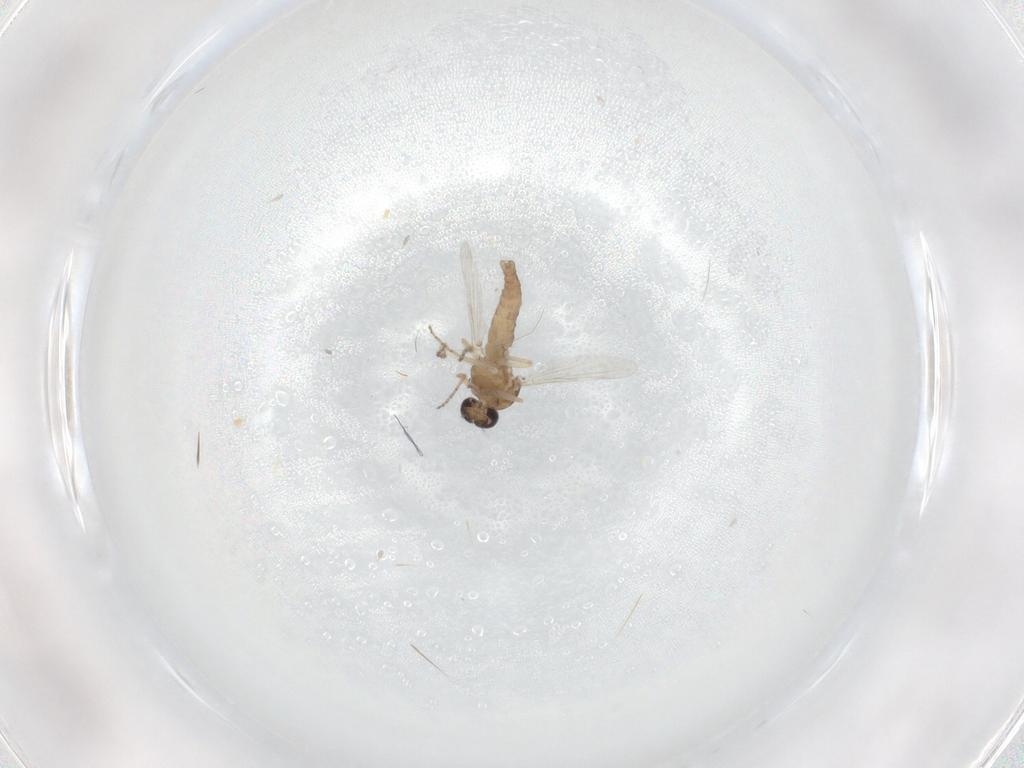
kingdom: Animalia
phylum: Arthropoda
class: Insecta
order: Diptera
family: Ceratopogonidae
